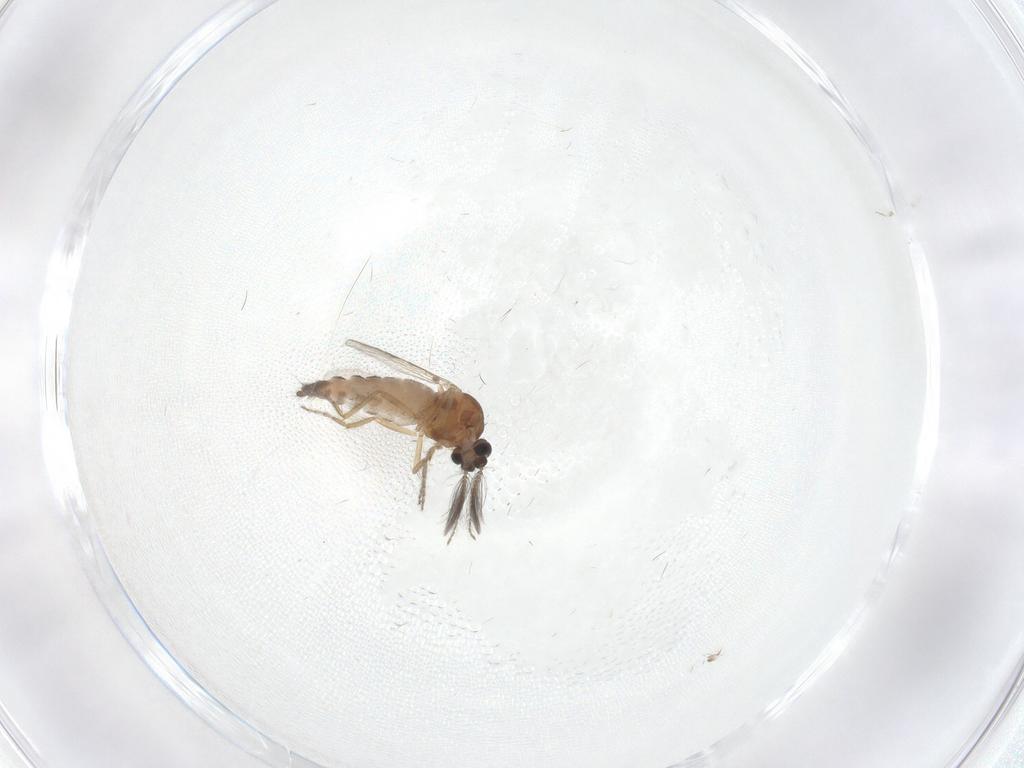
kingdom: Animalia
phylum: Arthropoda
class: Insecta
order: Diptera
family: Ceratopogonidae
